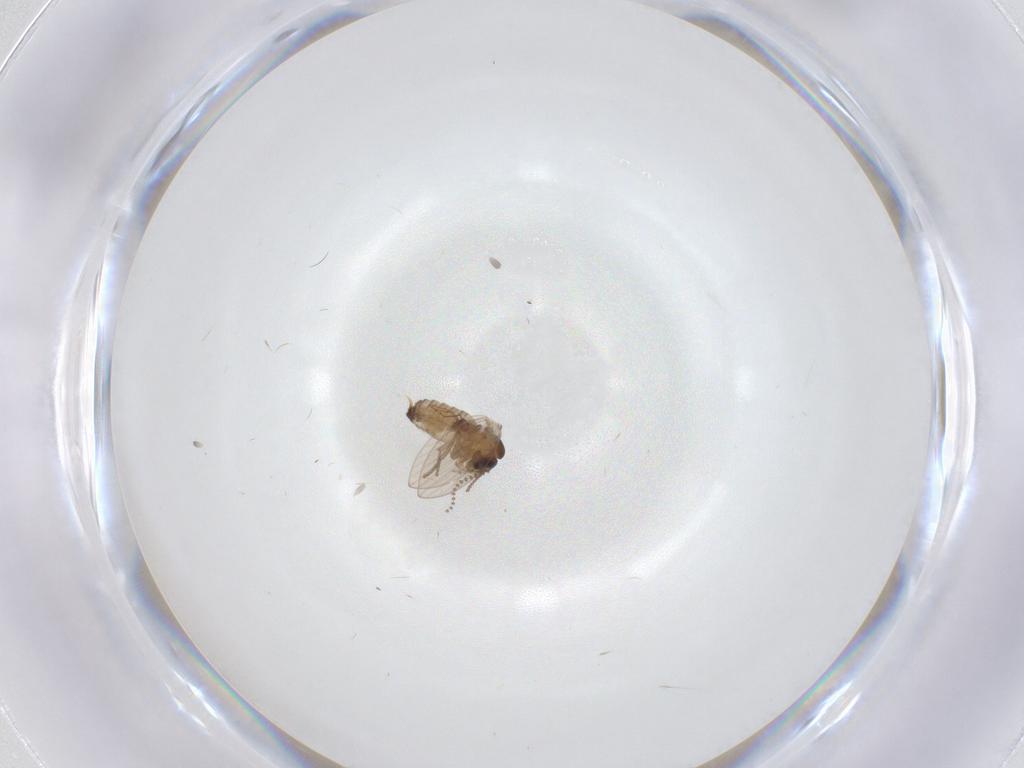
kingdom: Animalia
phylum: Arthropoda
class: Insecta
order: Diptera
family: Psychodidae
